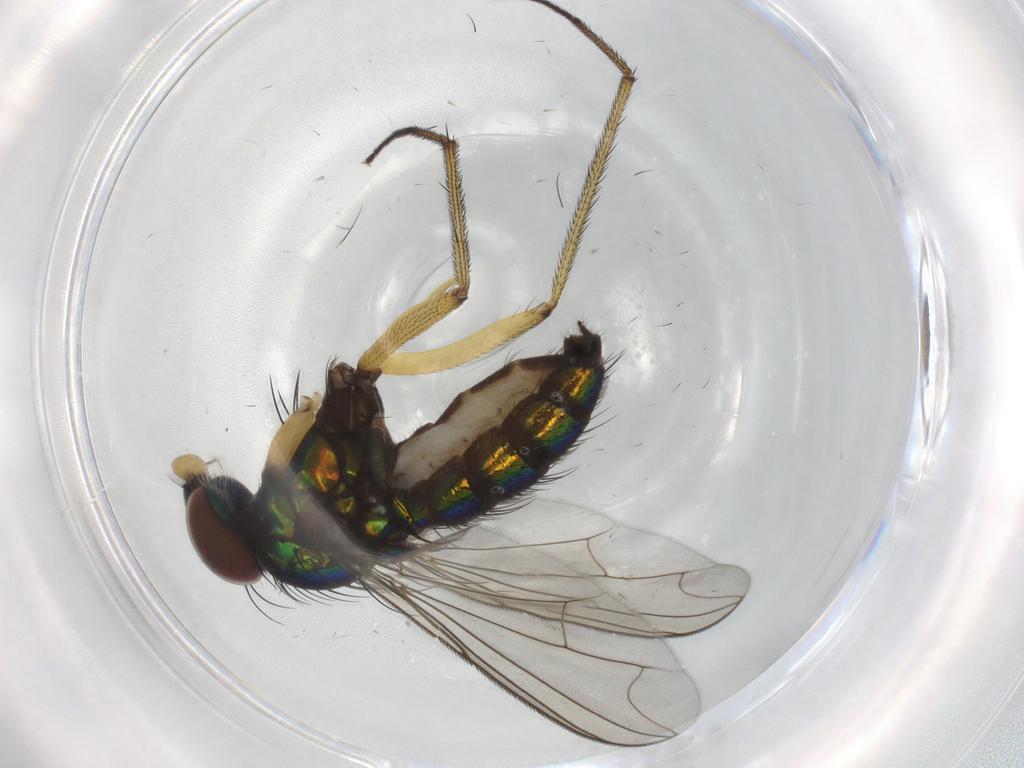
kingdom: Animalia
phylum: Arthropoda
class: Insecta
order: Diptera
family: Dolichopodidae
